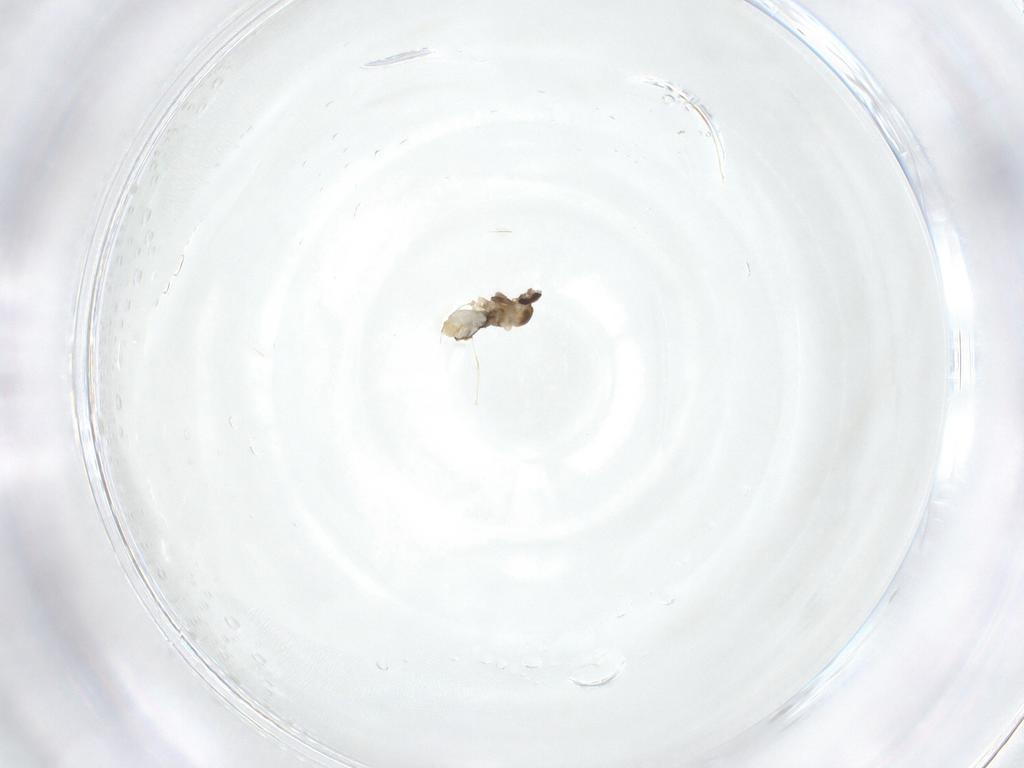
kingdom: Animalia
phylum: Arthropoda
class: Insecta
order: Diptera
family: Cecidomyiidae
